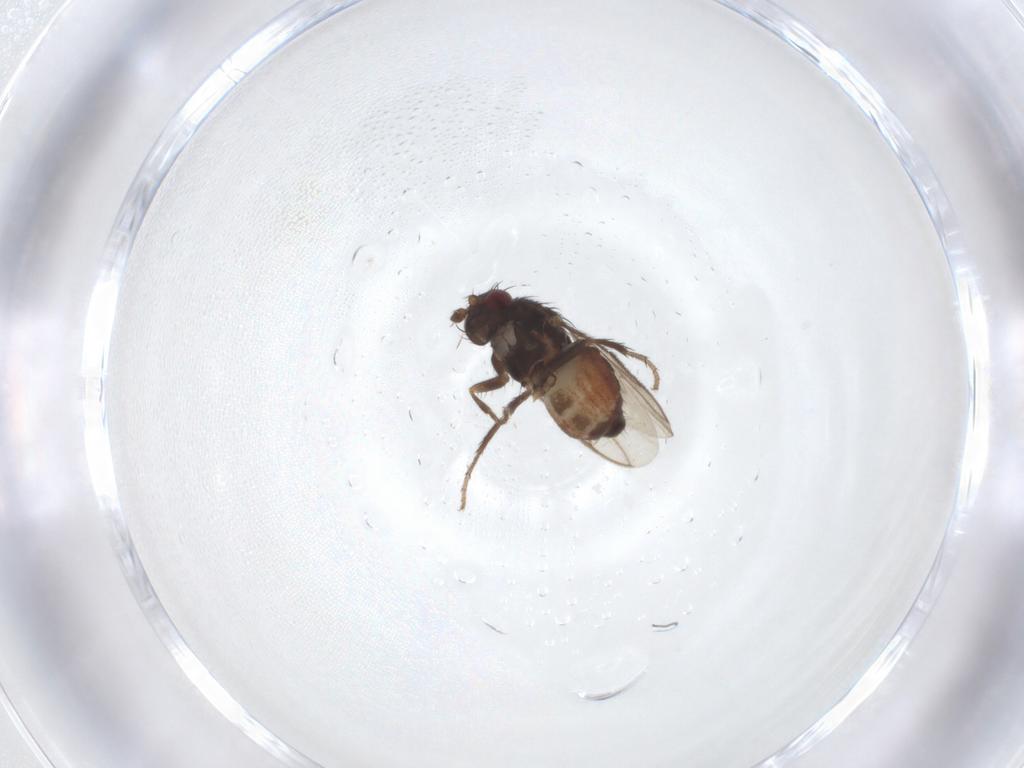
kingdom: Animalia
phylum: Arthropoda
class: Insecta
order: Diptera
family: Sphaeroceridae
